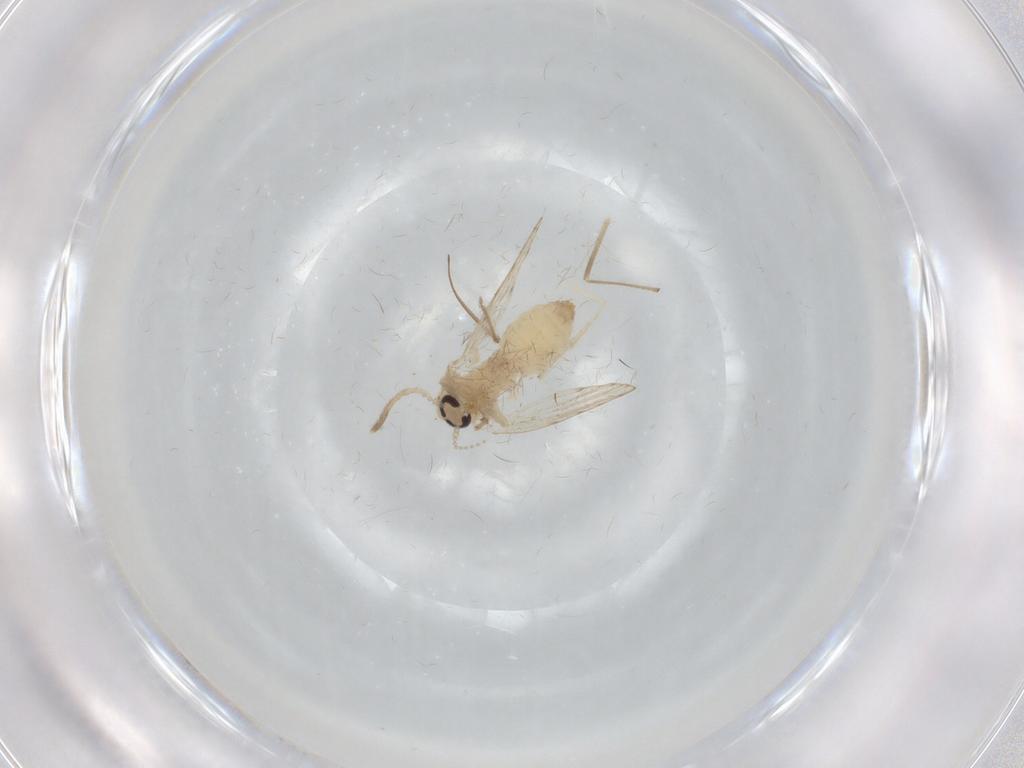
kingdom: Animalia
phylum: Arthropoda
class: Insecta
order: Diptera
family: Psychodidae
